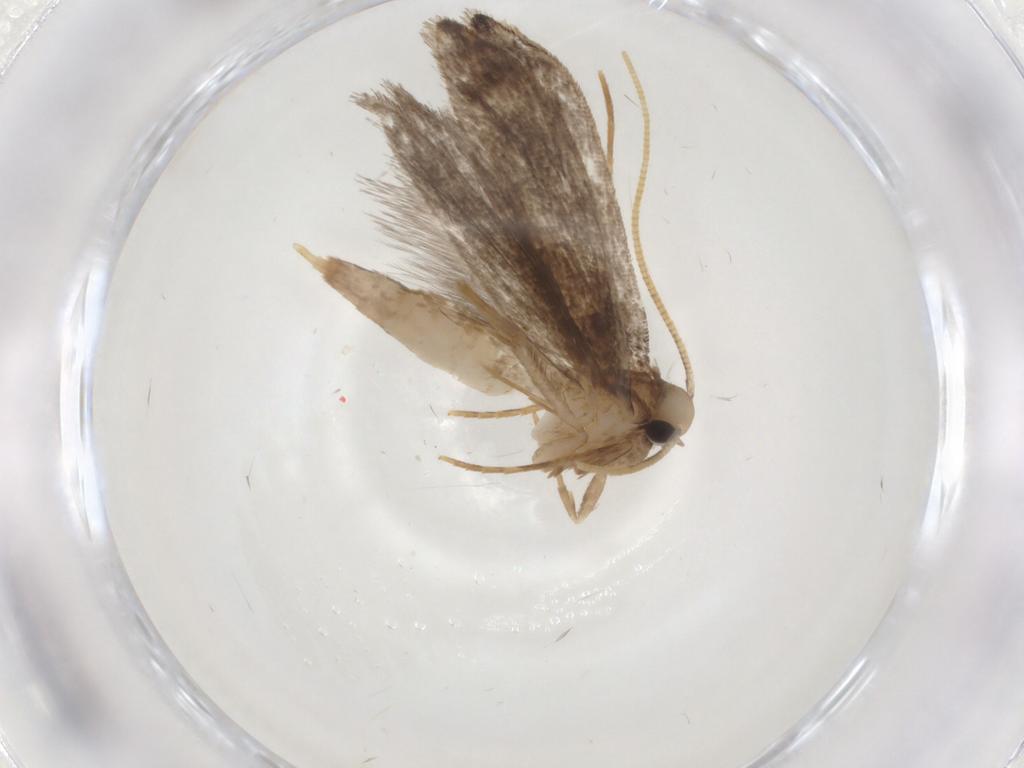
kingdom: Animalia
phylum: Arthropoda
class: Insecta
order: Lepidoptera
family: Tineidae
